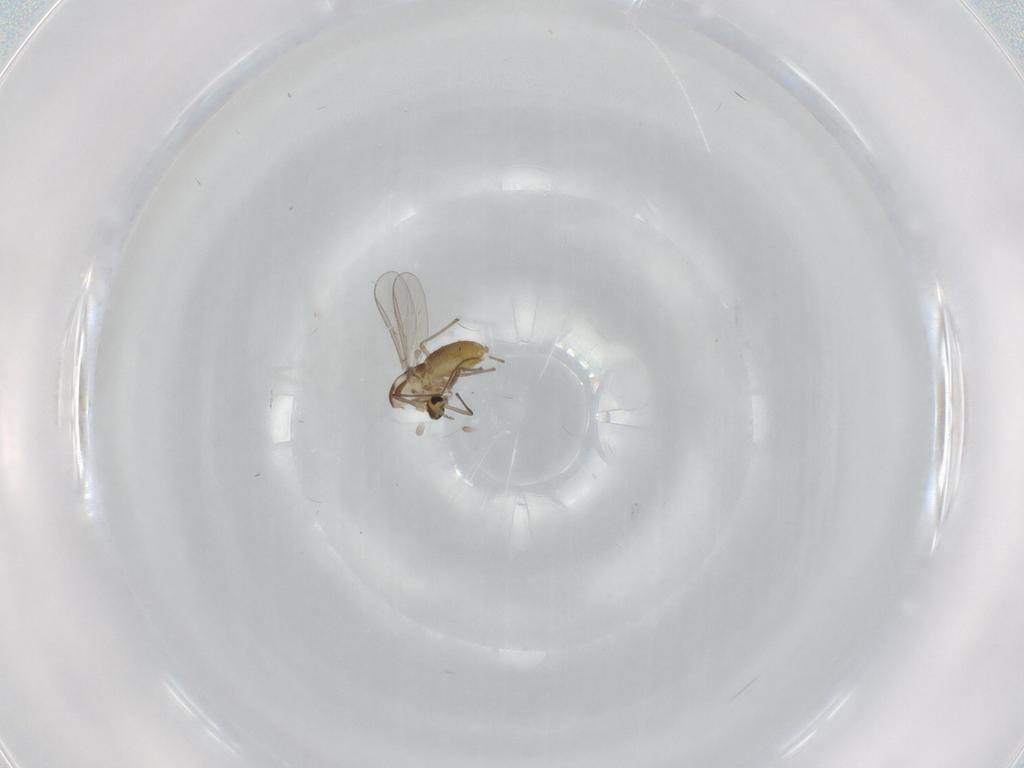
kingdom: Animalia
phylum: Arthropoda
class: Insecta
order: Diptera
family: Chironomidae
